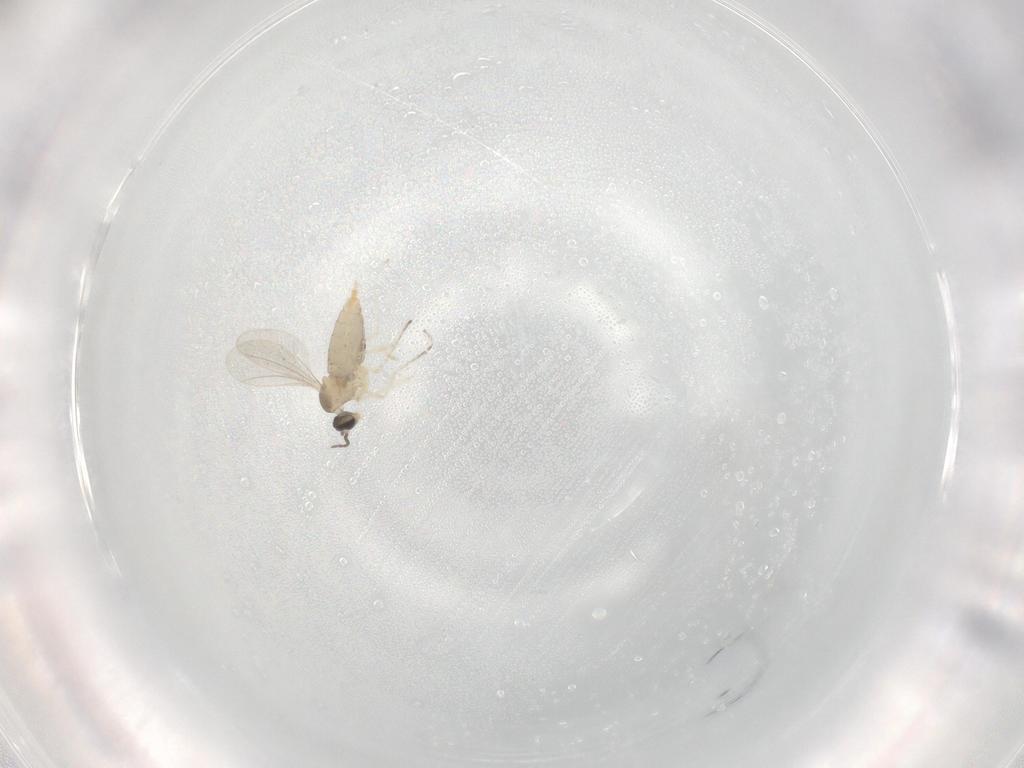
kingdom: Animalia
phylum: Arthropoda
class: Insecta
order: Diptera
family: Cecidomyiidae
